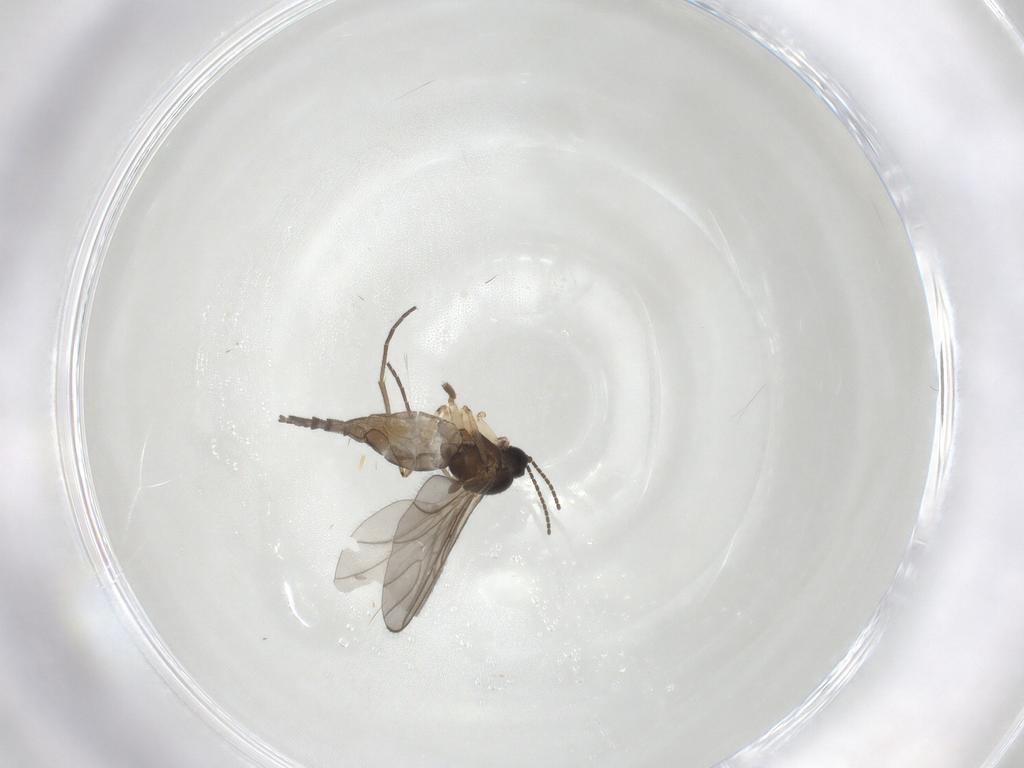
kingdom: Animalia
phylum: Arthropoda
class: Insecta
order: Diptera
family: Sciaridae
